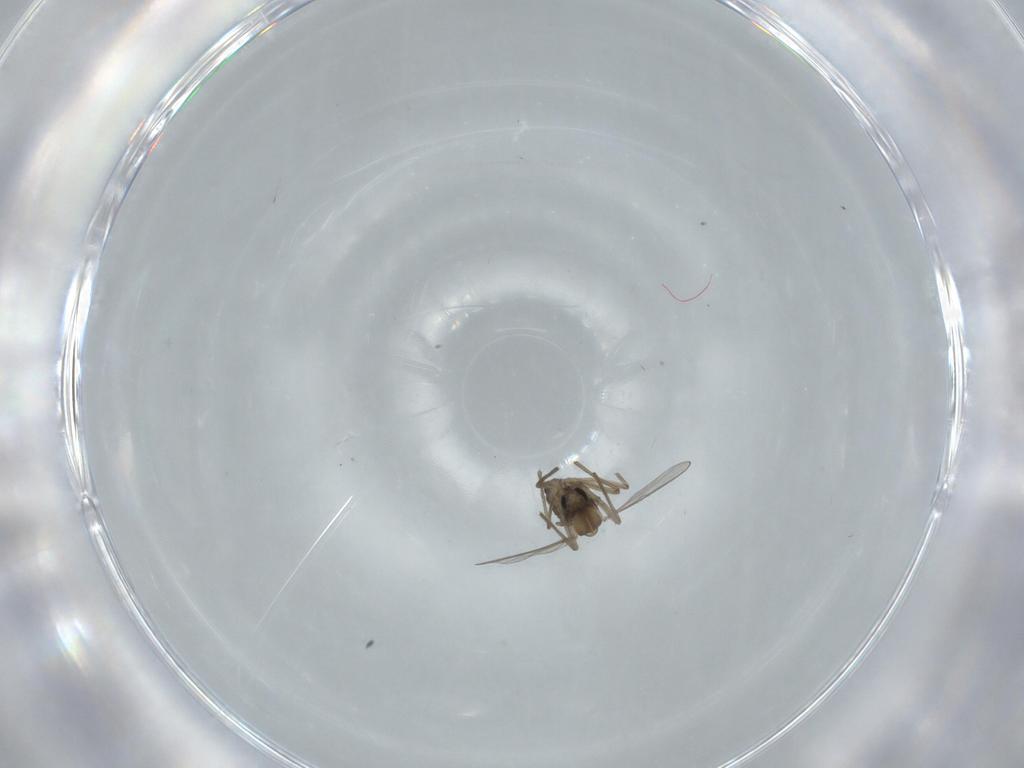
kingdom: Animalia
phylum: Arthropoda
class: Insecta
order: Diptera
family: Chironomidae
